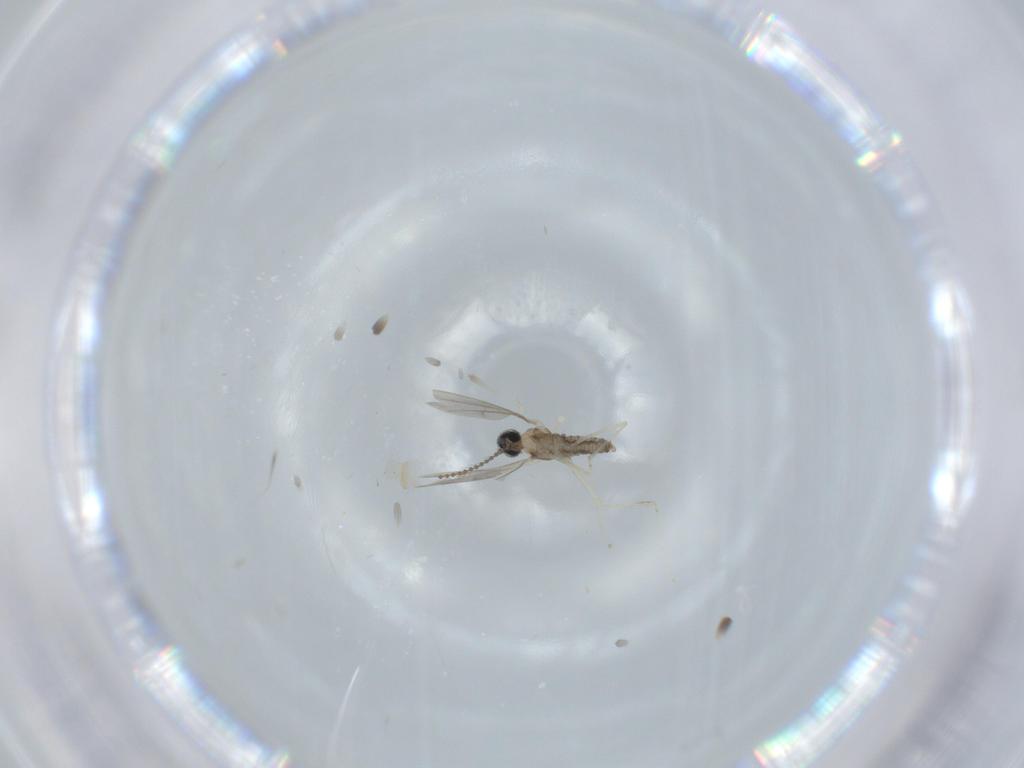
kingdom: Animalia
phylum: Arthropoda
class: Insecta
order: Diptera
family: Cecidomyiidae
